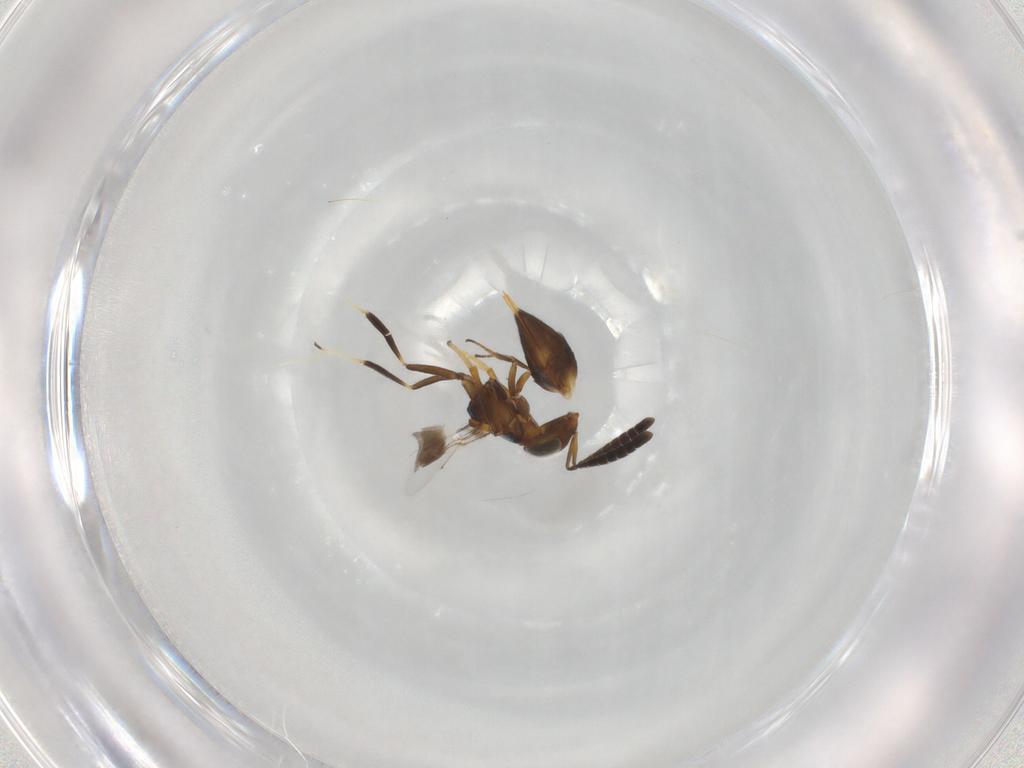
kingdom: Animalia
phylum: Arthropoda
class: Insecta
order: Hymenoptera
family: Encyrtidae
